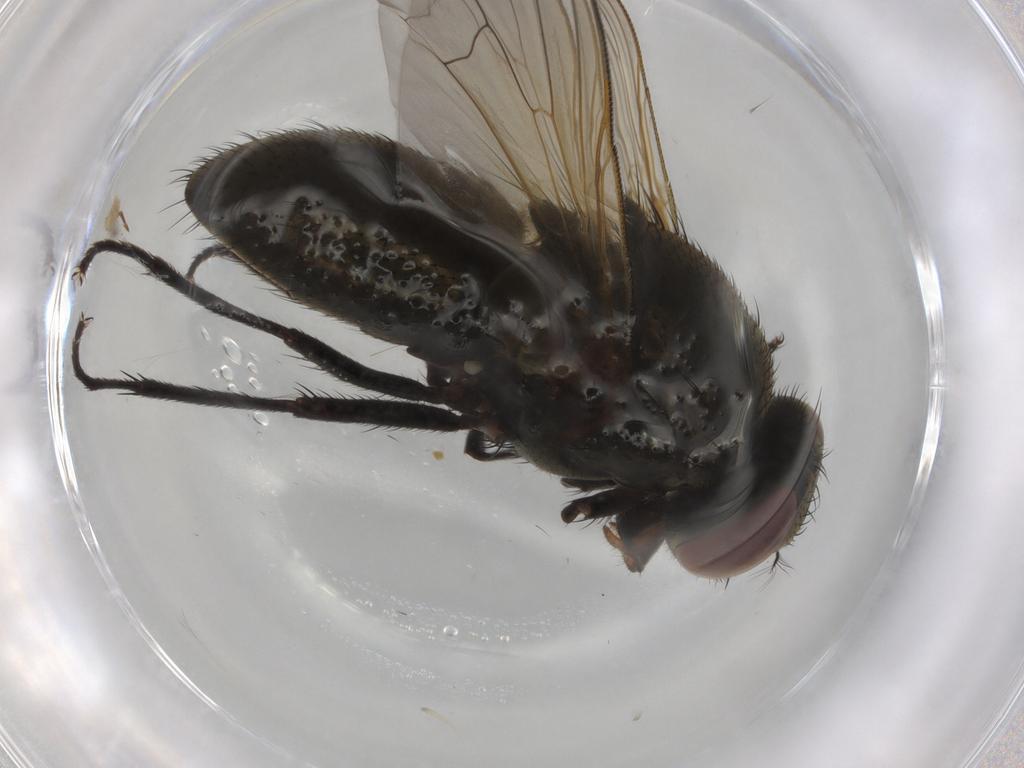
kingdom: Animalia
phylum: Arthropoda
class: Insecta
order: Diptera
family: Muscidae
